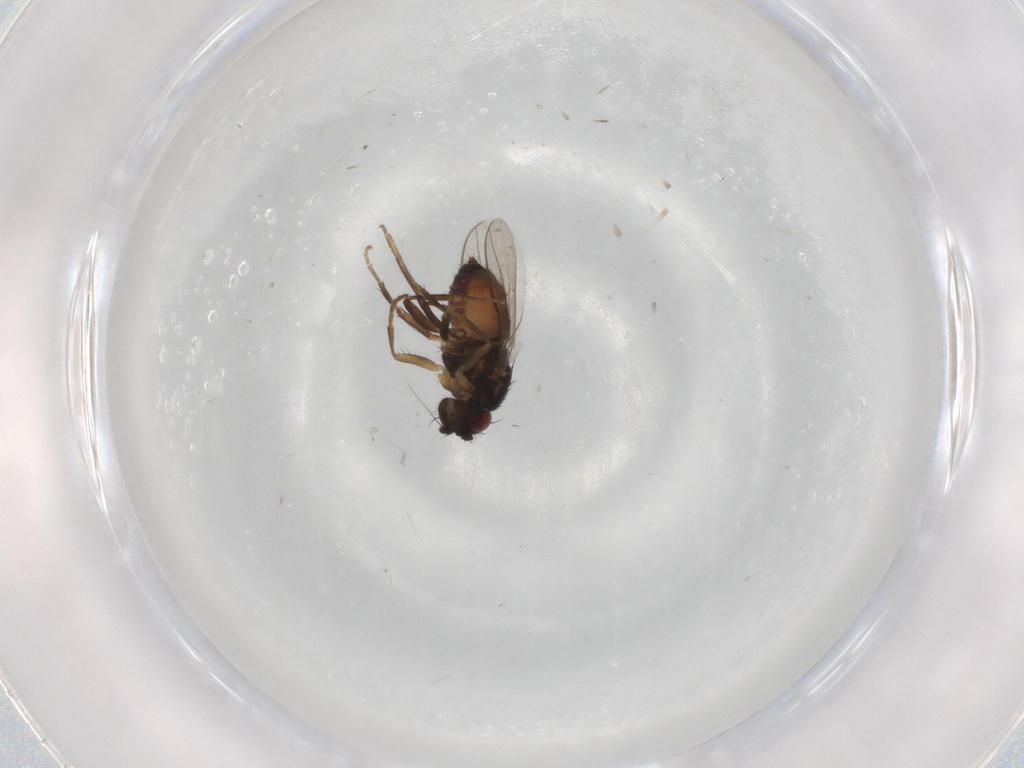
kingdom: Animalia
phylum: Arthropoda
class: Insecta
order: Diptera
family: Sphaeroceridae
